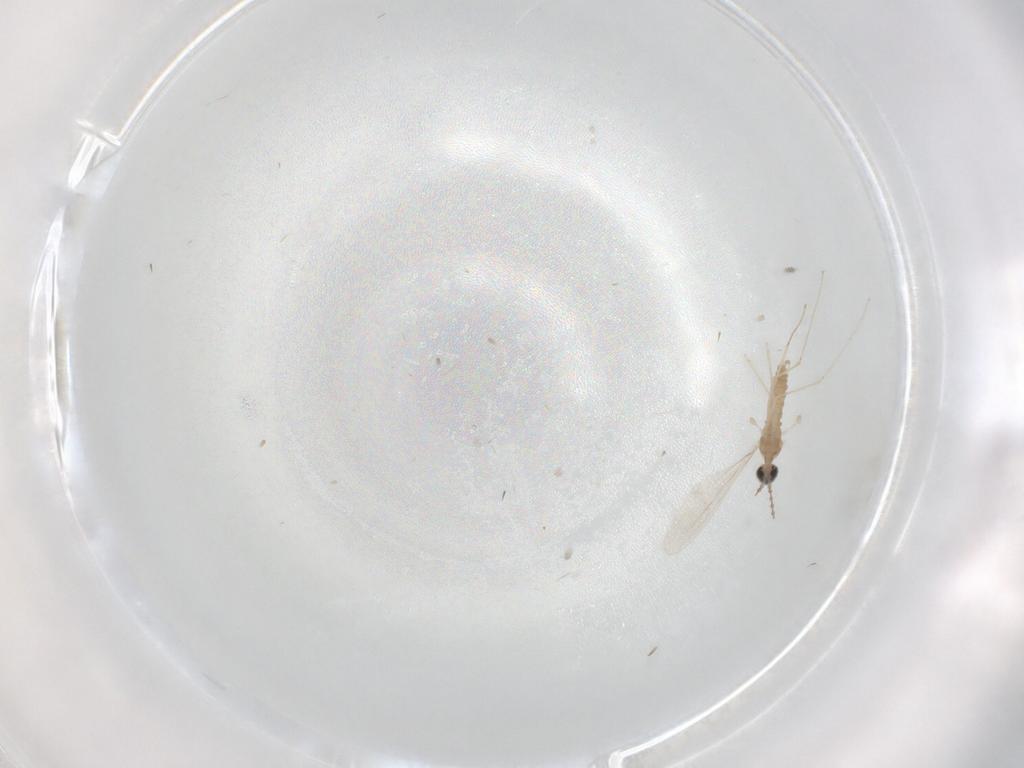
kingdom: Animalia
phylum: Arthropoda
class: Insecta
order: Diptera
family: Cecidomyiidae
